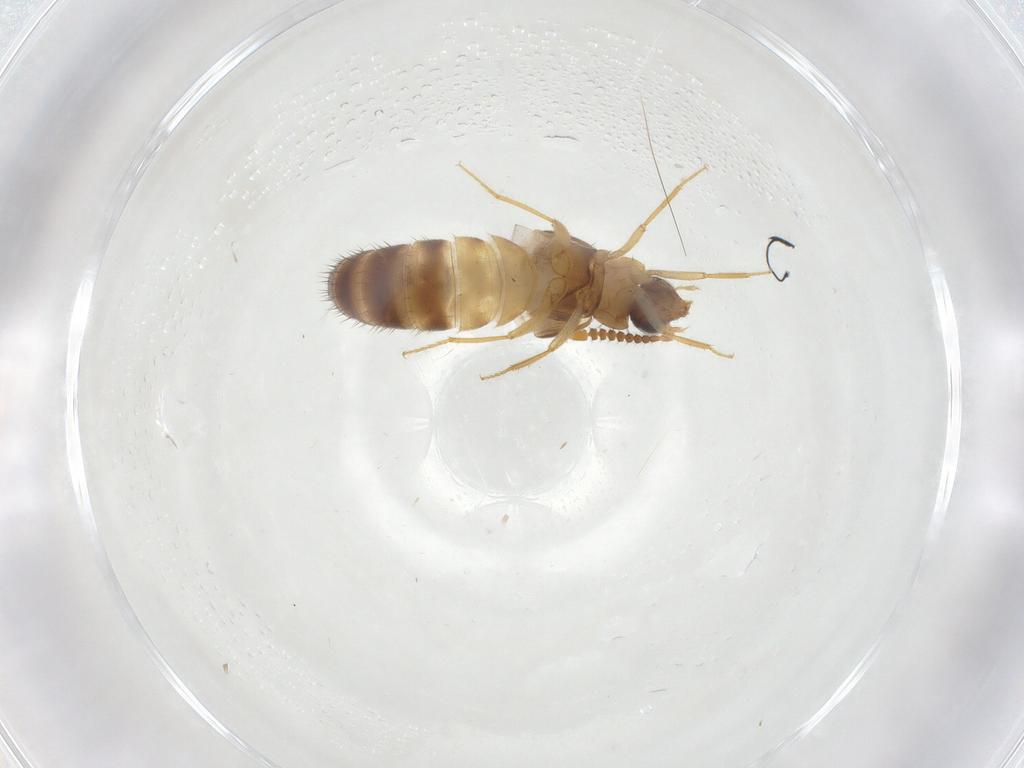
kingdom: Animalia
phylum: Arthropoda
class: Insecta
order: Coleoptera
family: Staphylinidae
